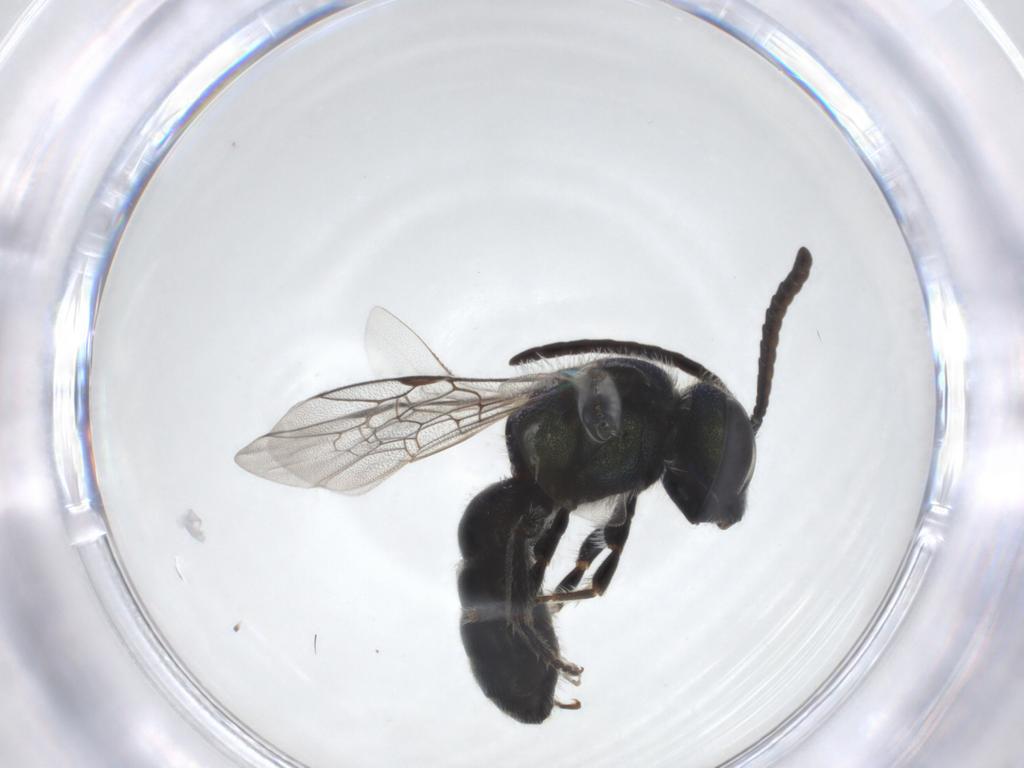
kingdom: Animalia
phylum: Arthropoda
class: Insecta
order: Hymenoptera
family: Halictidae
